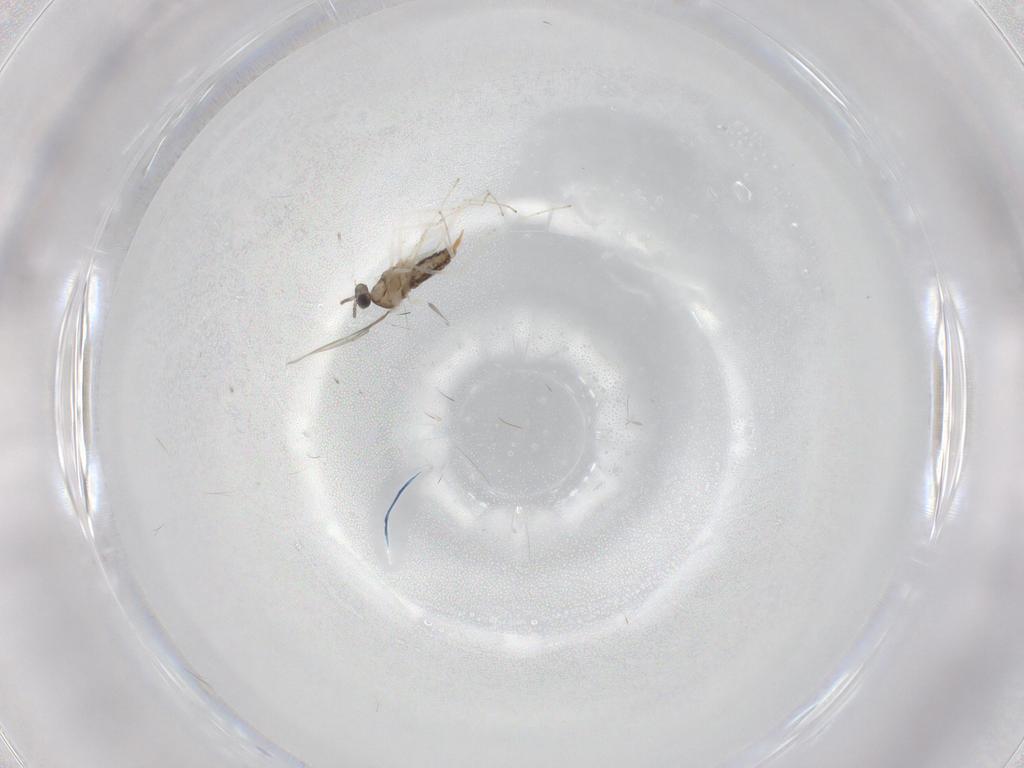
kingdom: Animalia
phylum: Arthropoda
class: Insecta
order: Diptera
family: Cecidomyiidae
